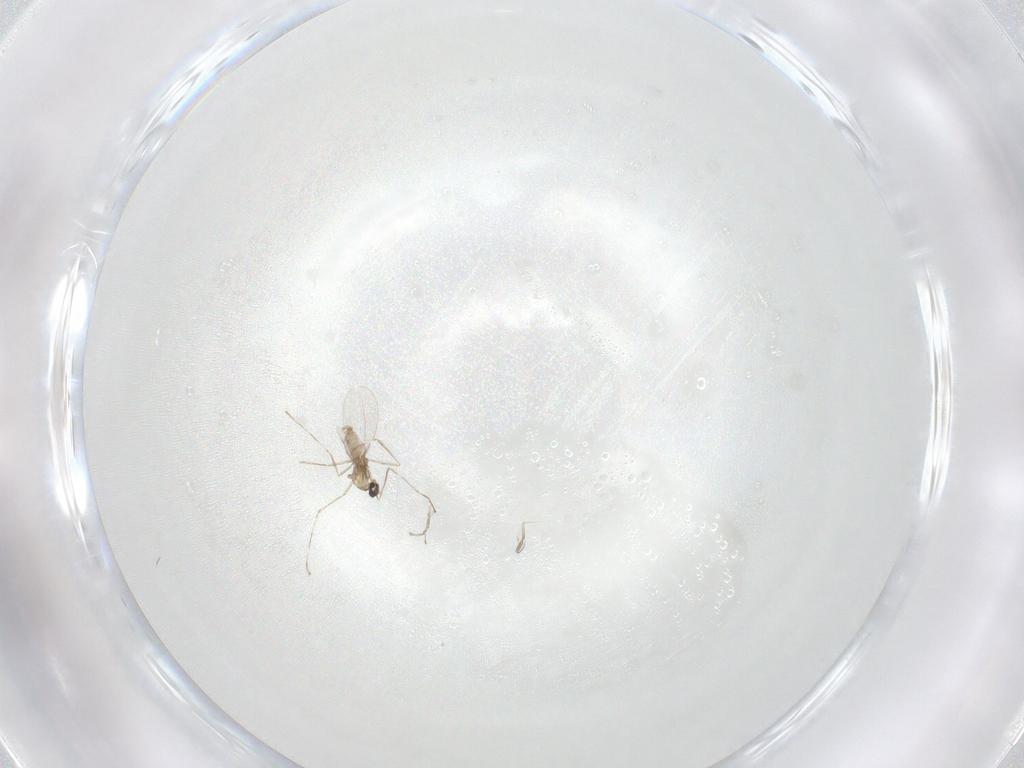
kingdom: Animalia
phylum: Arthropoda
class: Insecta
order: Diptera
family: Cecidomyiidae
